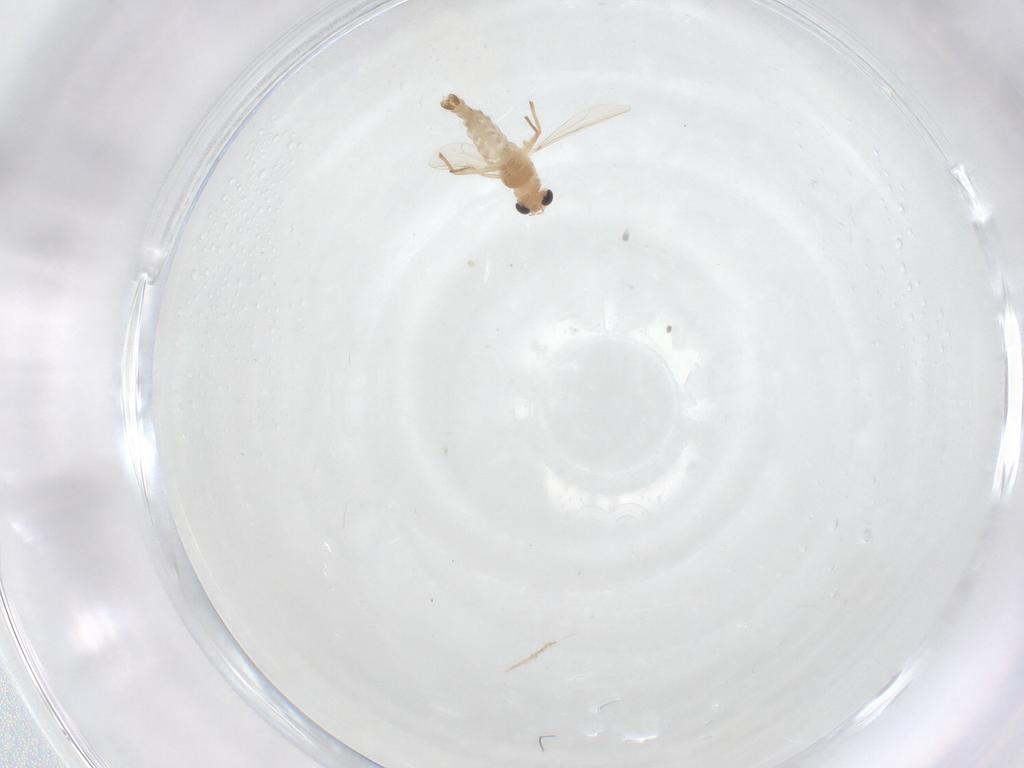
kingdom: Animalia
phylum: Arthropoda
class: Insecta
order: Diptera
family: Chironomidae
